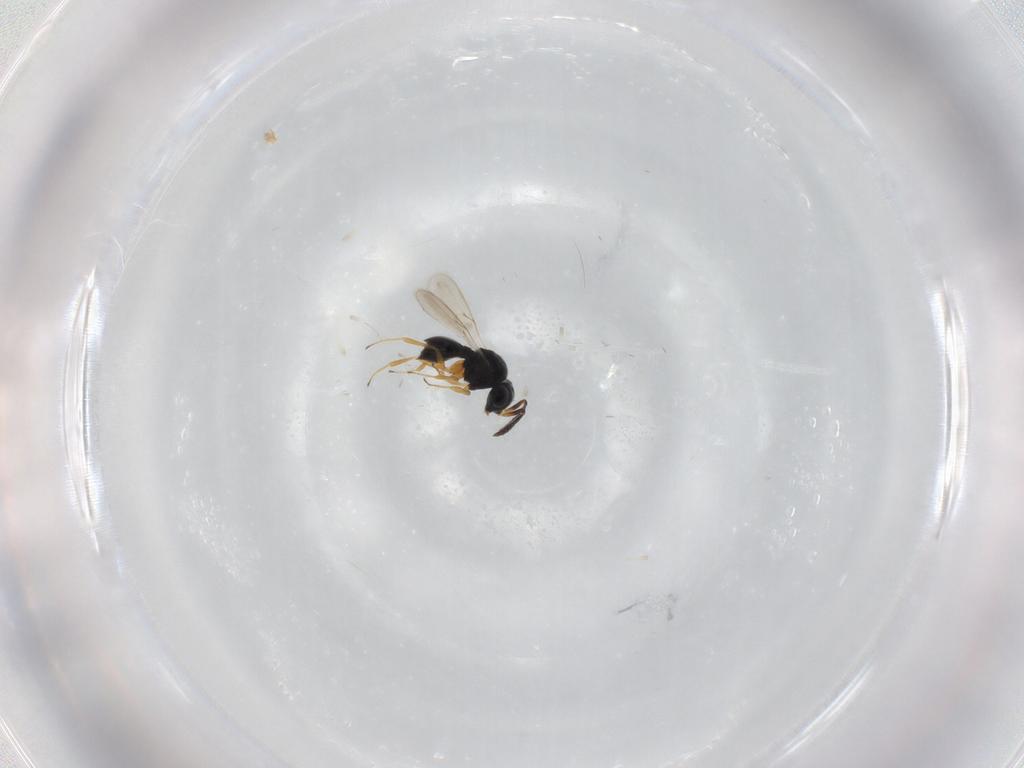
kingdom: Animalia
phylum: Arthropoda
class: Insecta
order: Hymenoptera
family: Scelionidae
